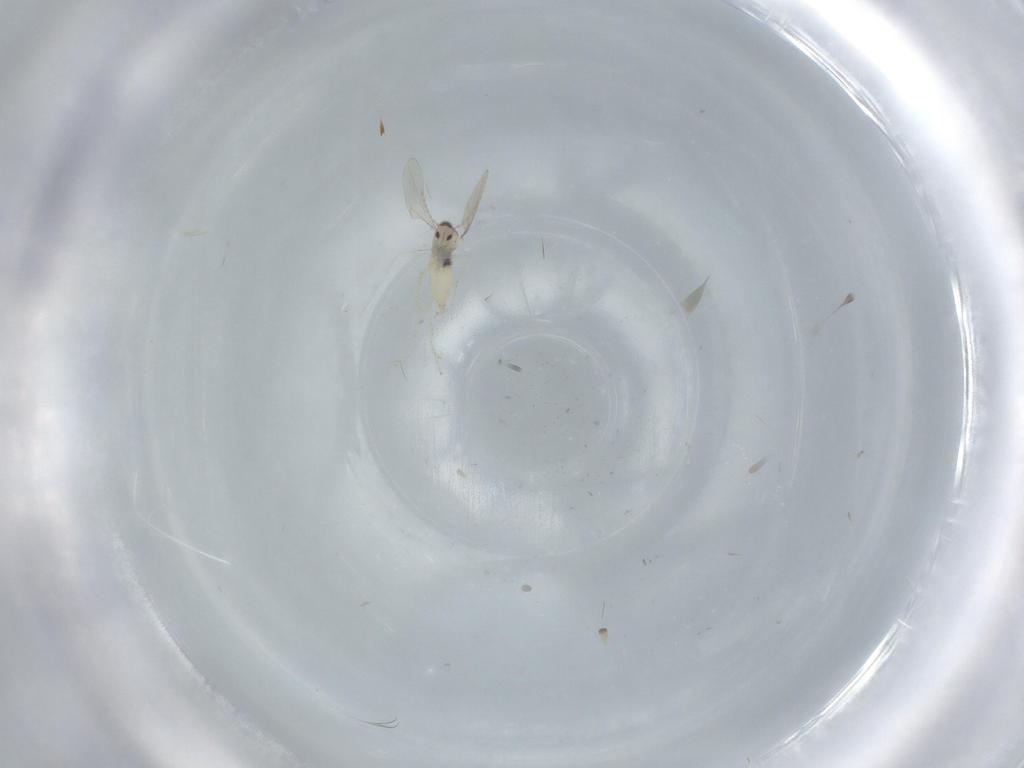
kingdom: Animalia
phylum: Arthropoda
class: Insecta
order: Diptera
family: Cecidomyiidae
